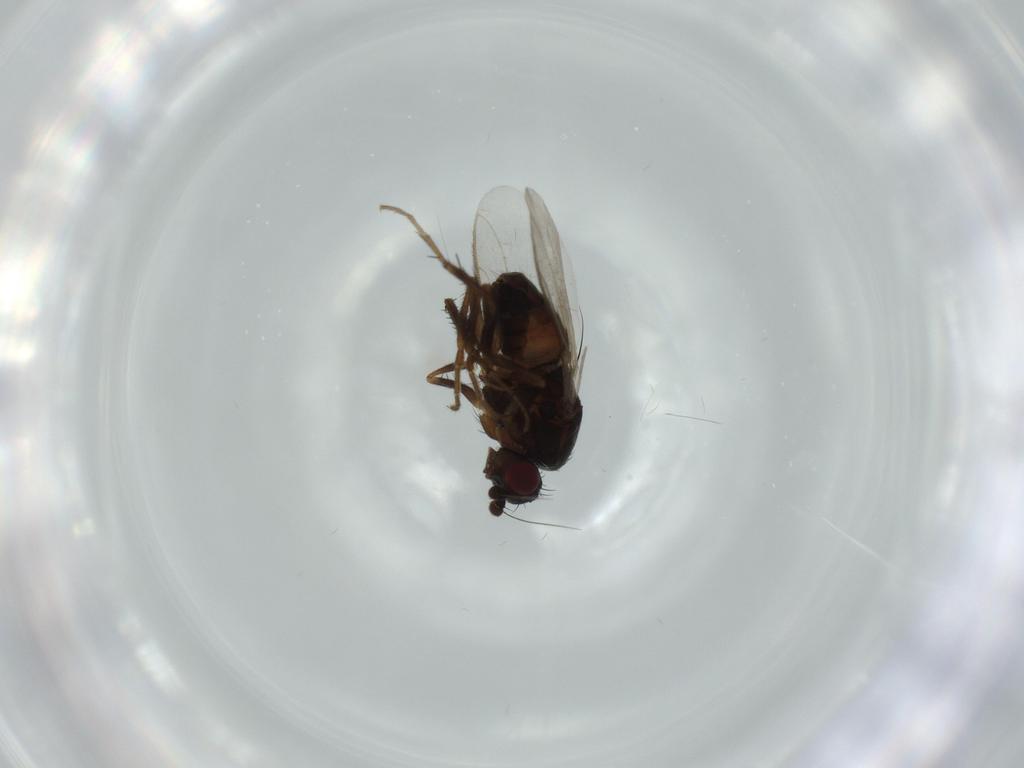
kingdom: Animalia
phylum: Arthropoda
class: Insecta
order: Diptera
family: Sphaeroceridae
